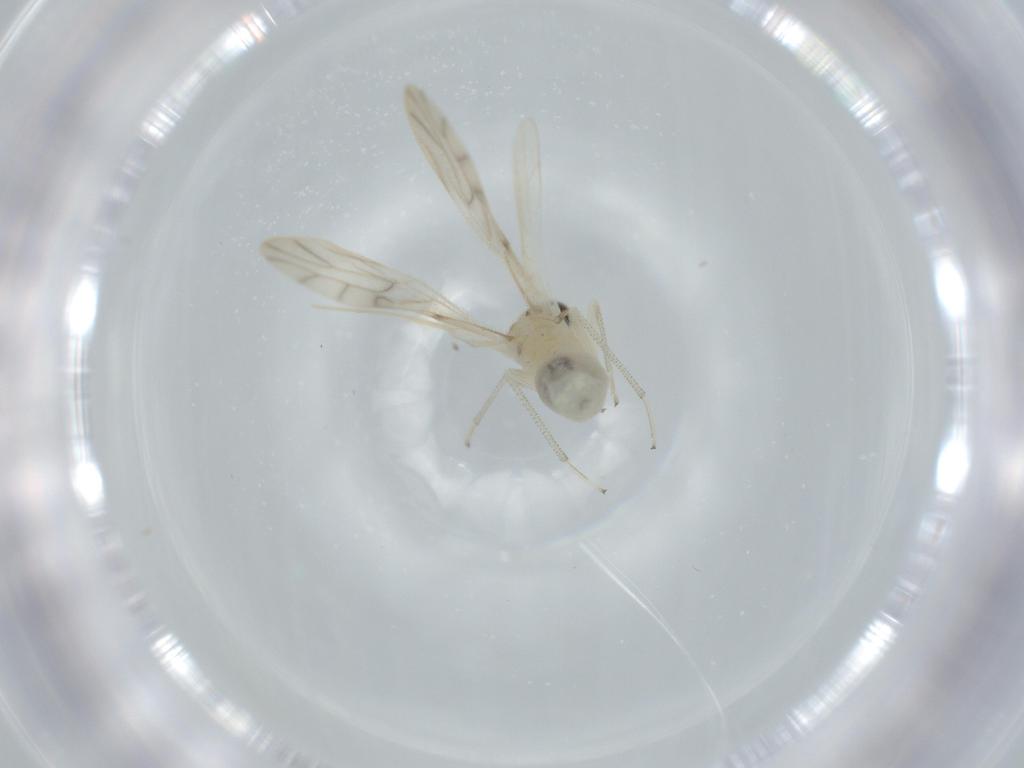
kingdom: Animalia
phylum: Arthropoda
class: Insecta
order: Psocodea
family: Caeciliusidae
